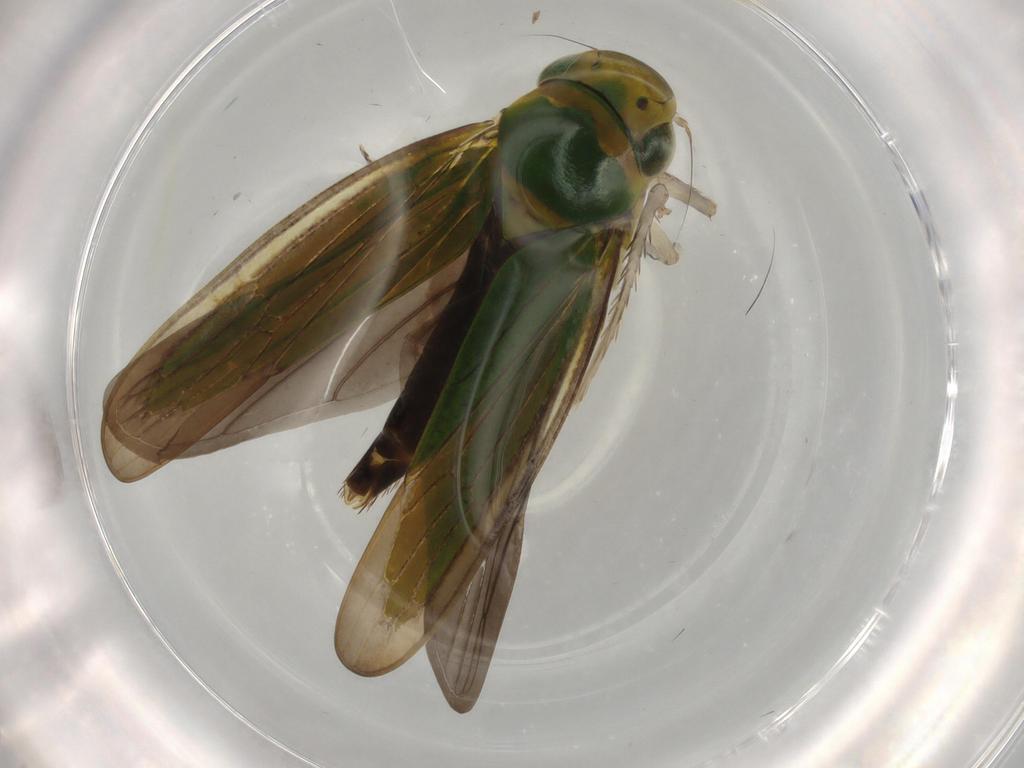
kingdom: Animalia
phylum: Arthropoda
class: Insecta
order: Hemiptera
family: Cicadellidae
